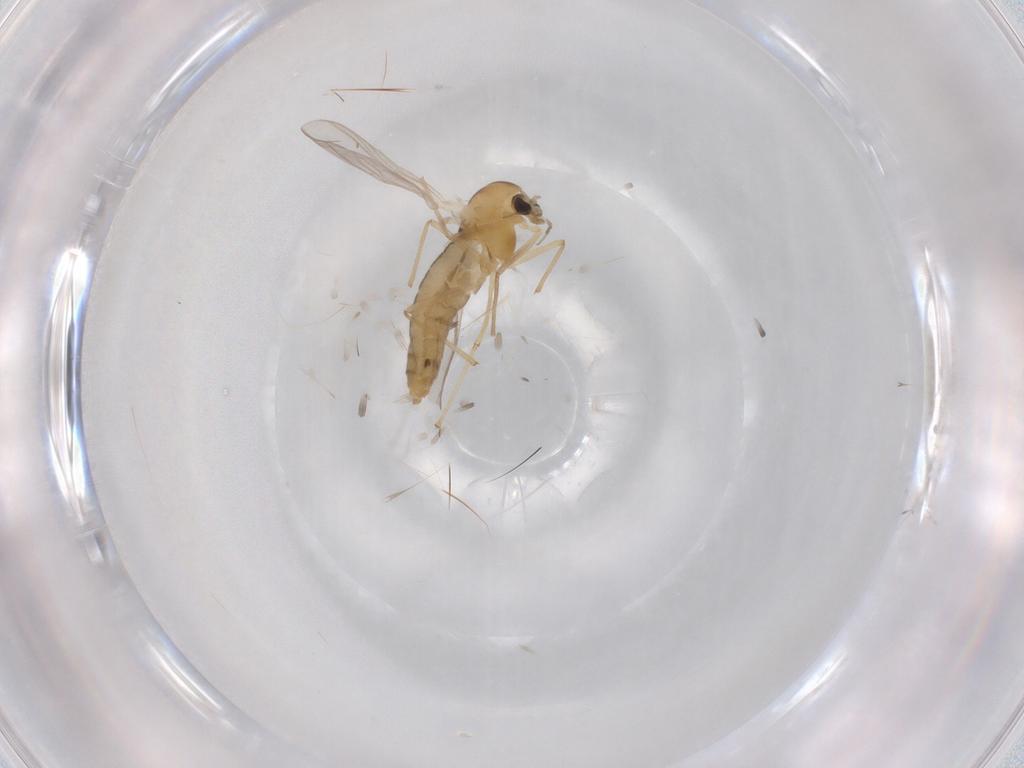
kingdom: Animalia
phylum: Arthropoda
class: Insecta
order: Diptera
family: Chironomidae
